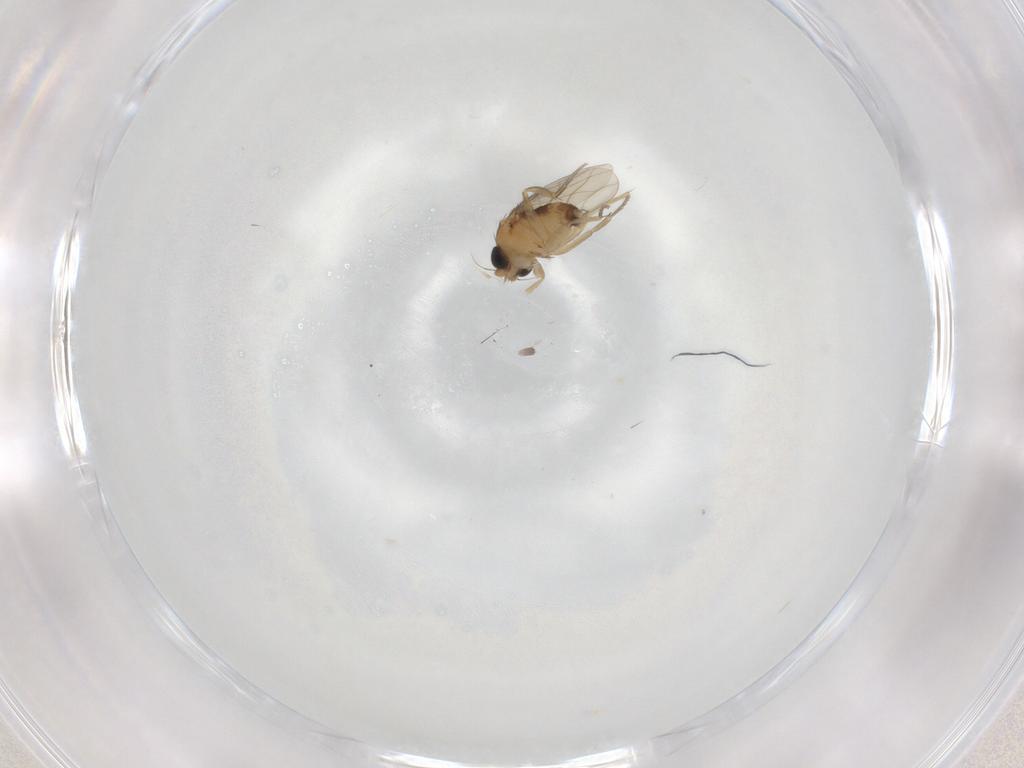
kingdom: Animalia
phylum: Arthropoda
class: Insecta
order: Diptera
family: Phoridae
